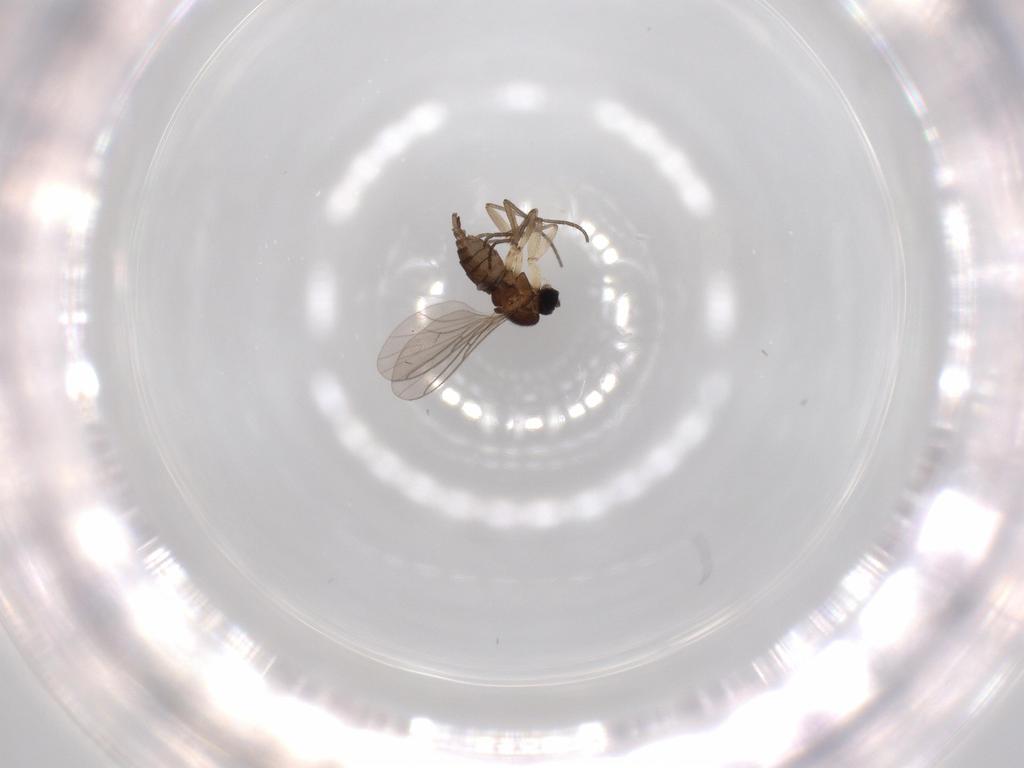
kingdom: Animalia
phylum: Arthropoda
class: Insecta
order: Diptera
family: Sciaridae
